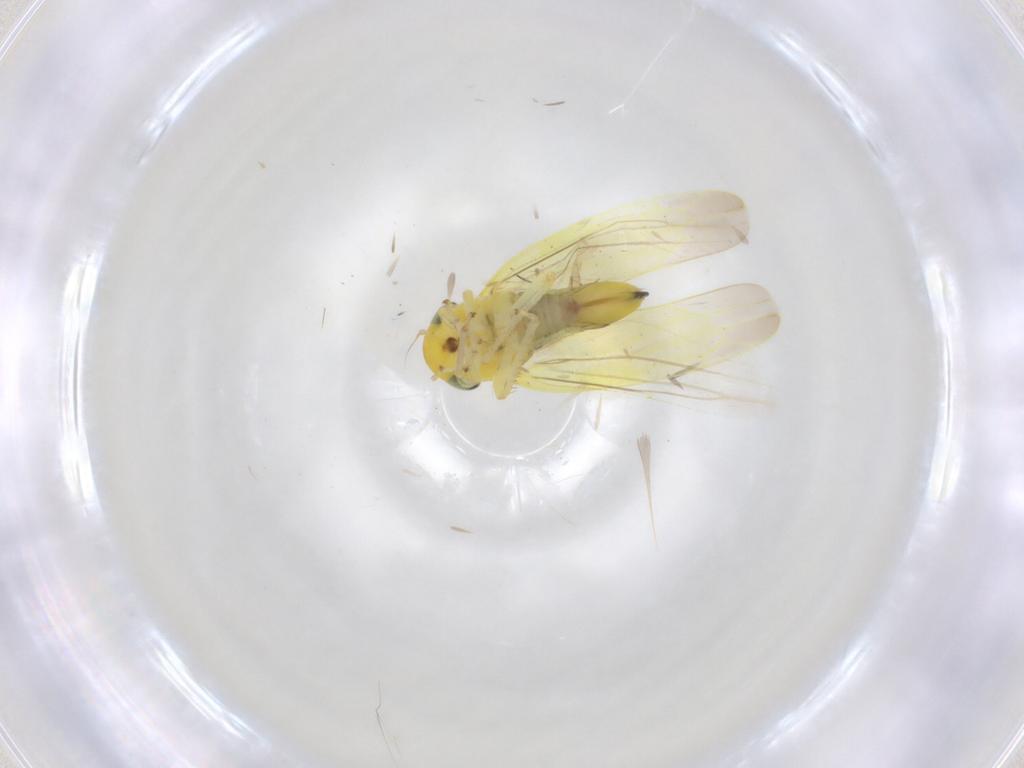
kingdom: Animalia
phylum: Arthropoda
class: Insecta
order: Hemiptera
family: Cicadellidae
